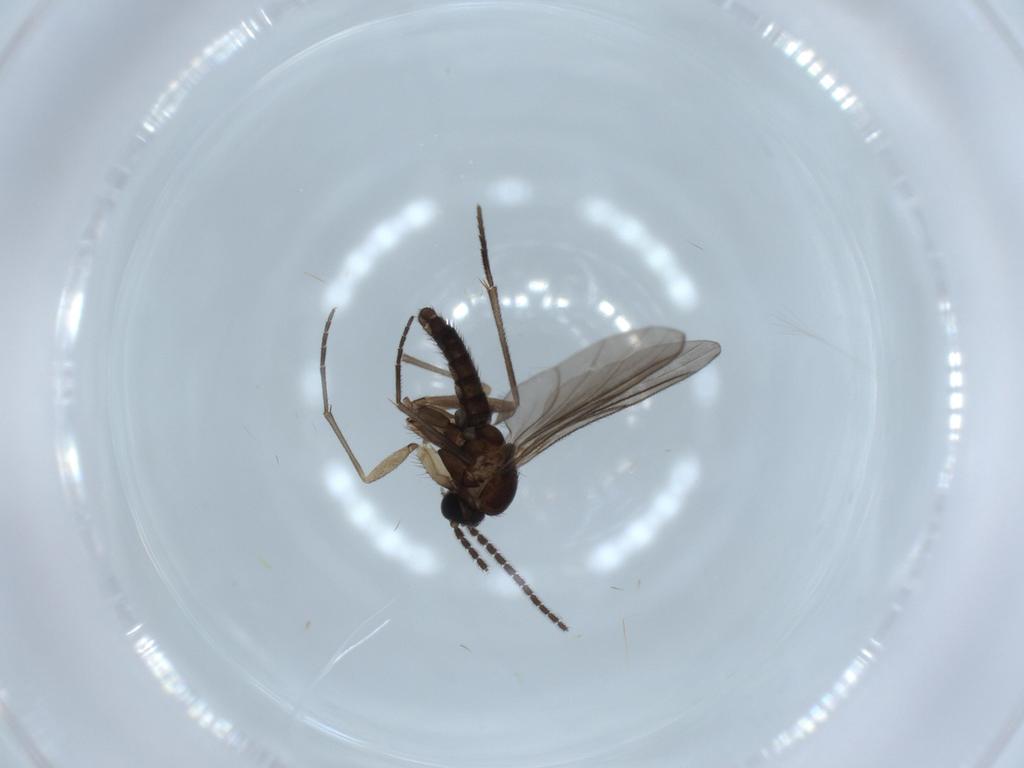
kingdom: Animalia
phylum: Arthropoda
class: Insecta
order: Diptera
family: Sciaridae
